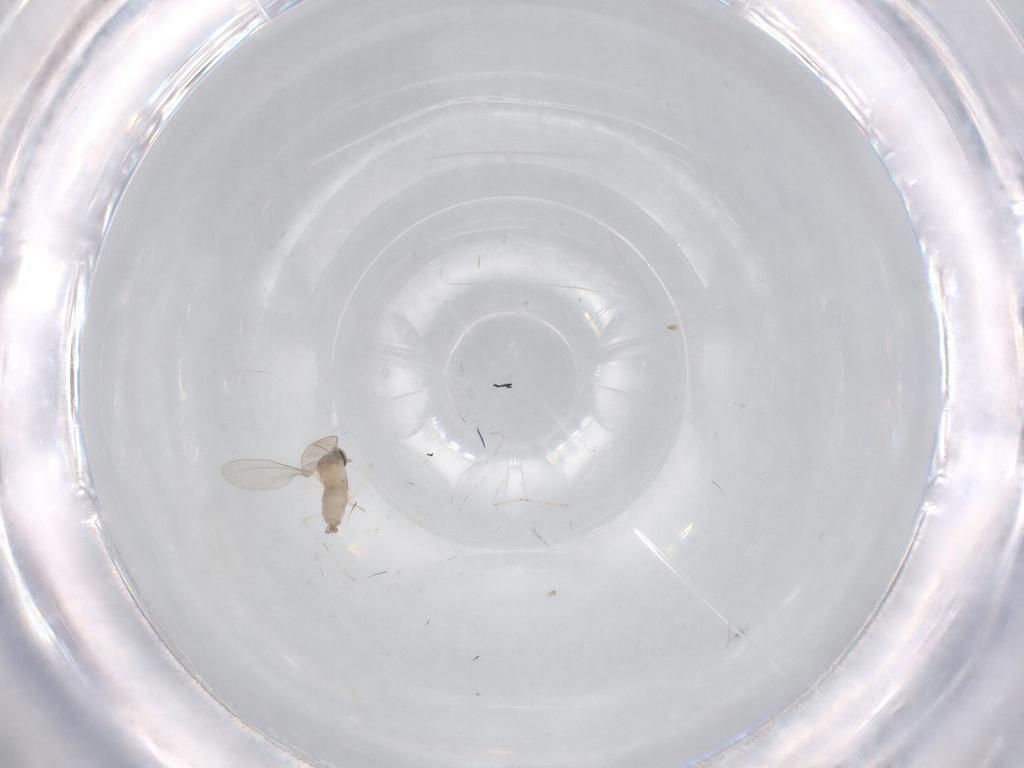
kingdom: Animalia
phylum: Arthropoda
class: Insecta
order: Diptera
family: Cecidomyiidae
